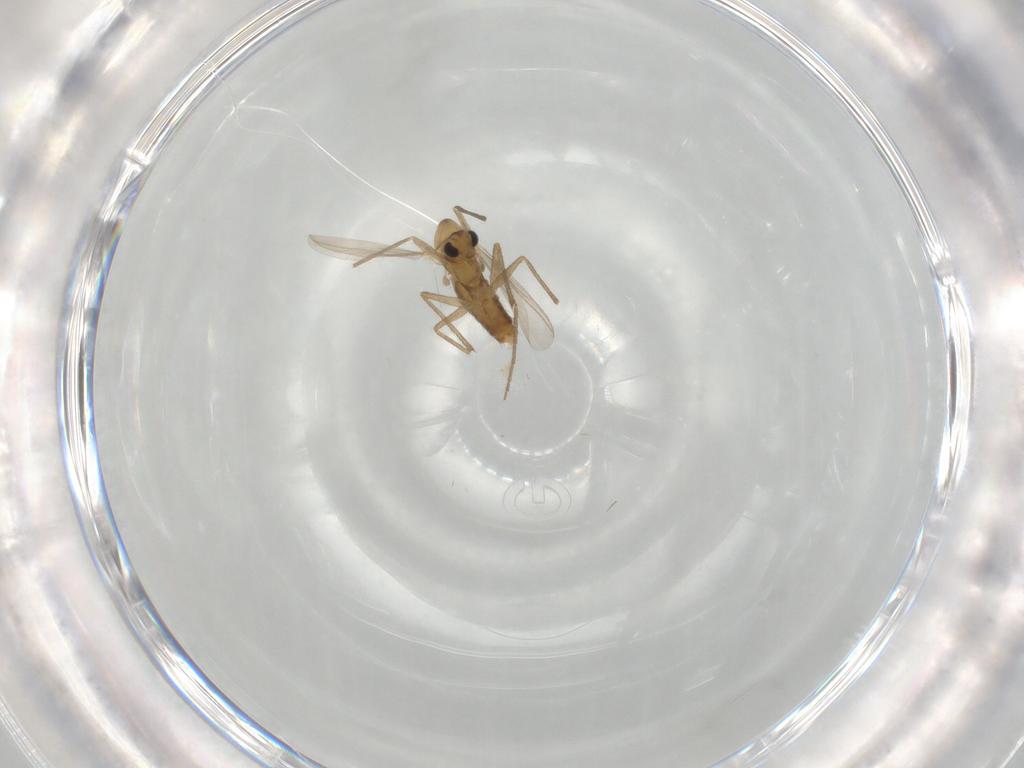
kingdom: Animalia
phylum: Arthropoda
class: Insecta
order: Diptera
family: Chironomidae
